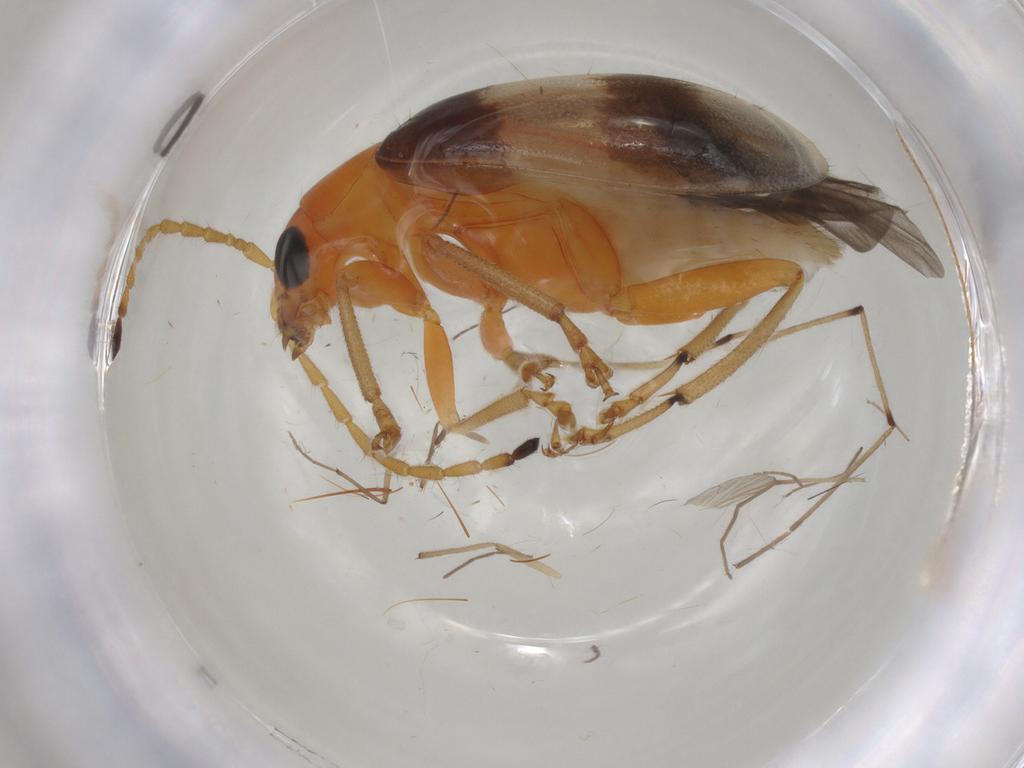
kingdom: Animalia
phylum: Arthropoda
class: Insecta
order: Coleoptera
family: Chrysomelidae
